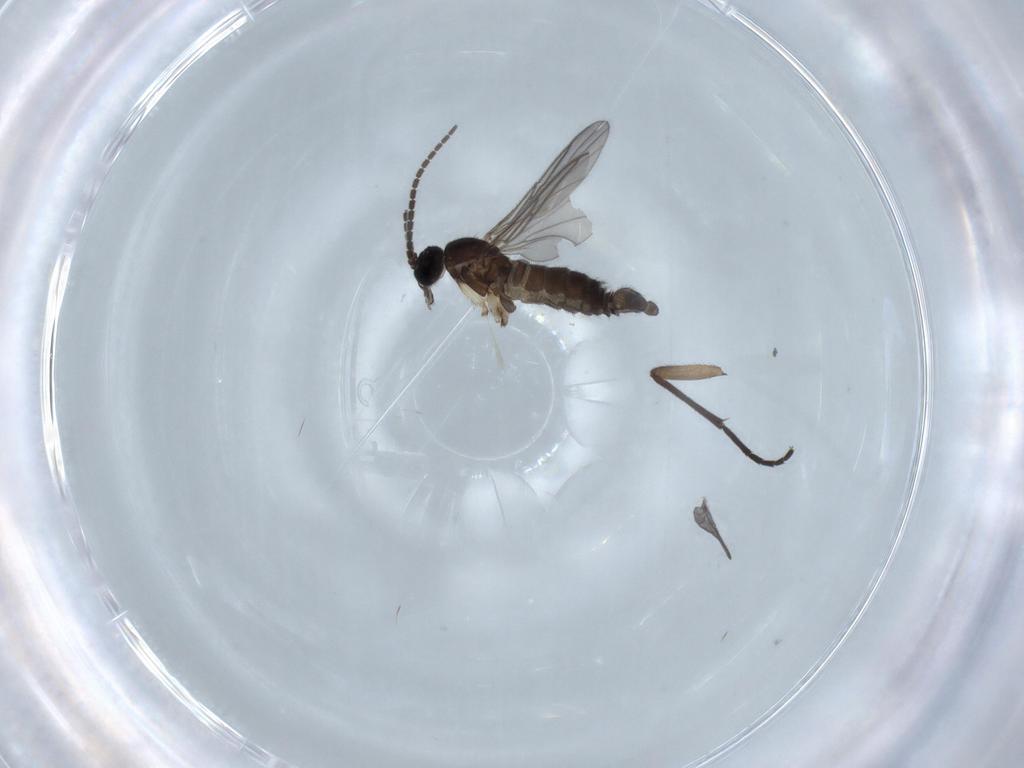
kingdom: Animalia
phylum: Arthropoda
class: Insecta
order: Diptera
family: Sciaridae
